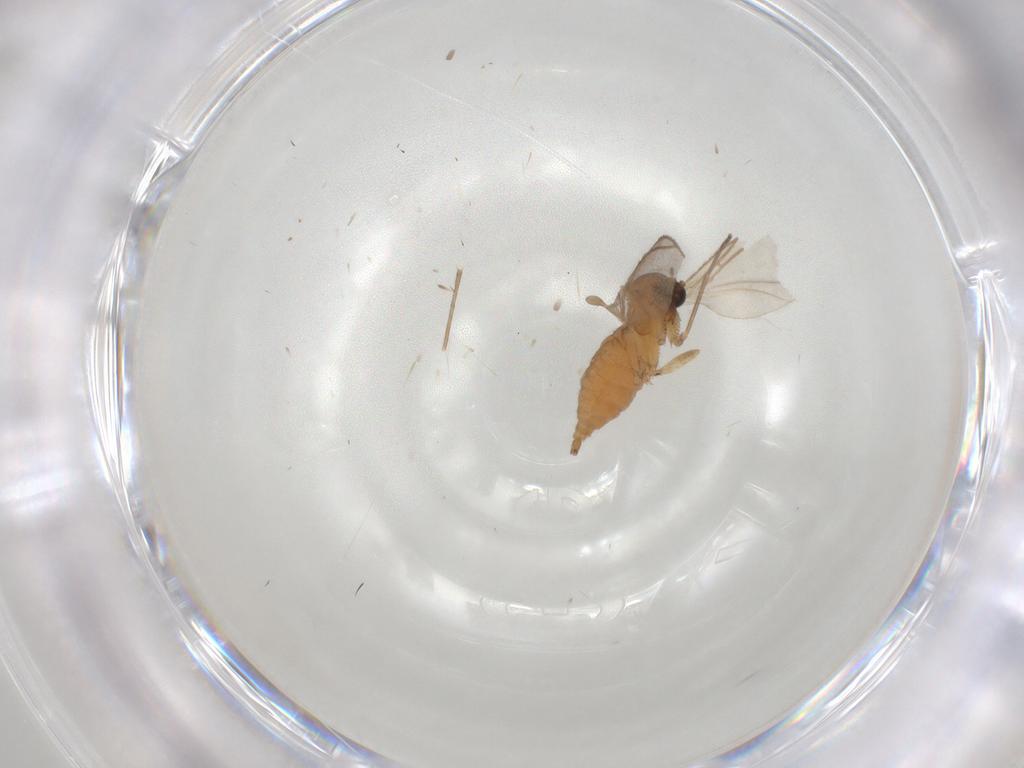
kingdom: Animalia
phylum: Arthropoda
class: Insecta
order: Diptera
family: Sciaridae
